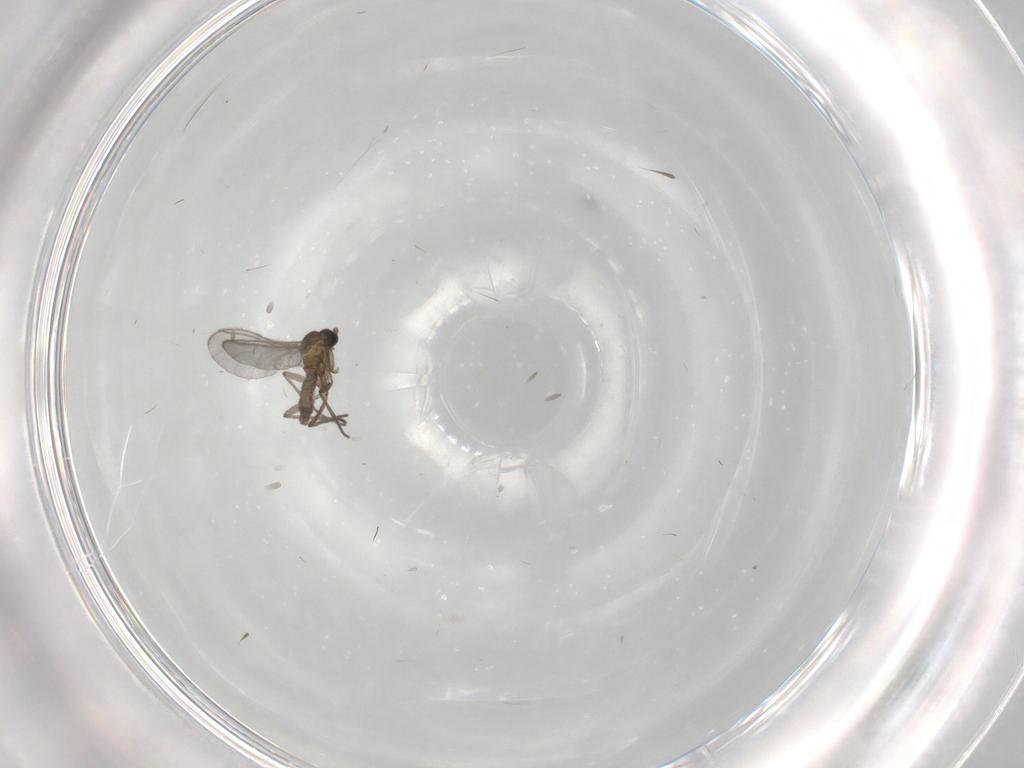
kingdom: Animalia
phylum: Arthropoda
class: Insecta
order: Diptera
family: Sciaridae
